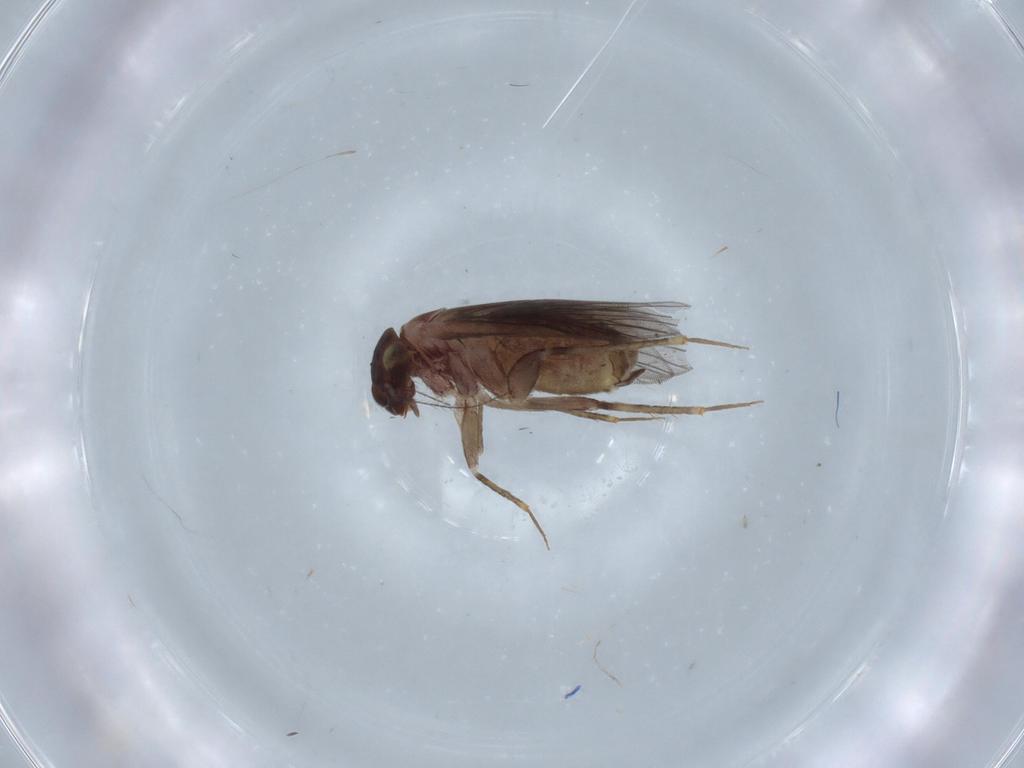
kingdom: Animalia
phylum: Arthropoda
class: Insecta
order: Psocodea
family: Lepidopsocidae
